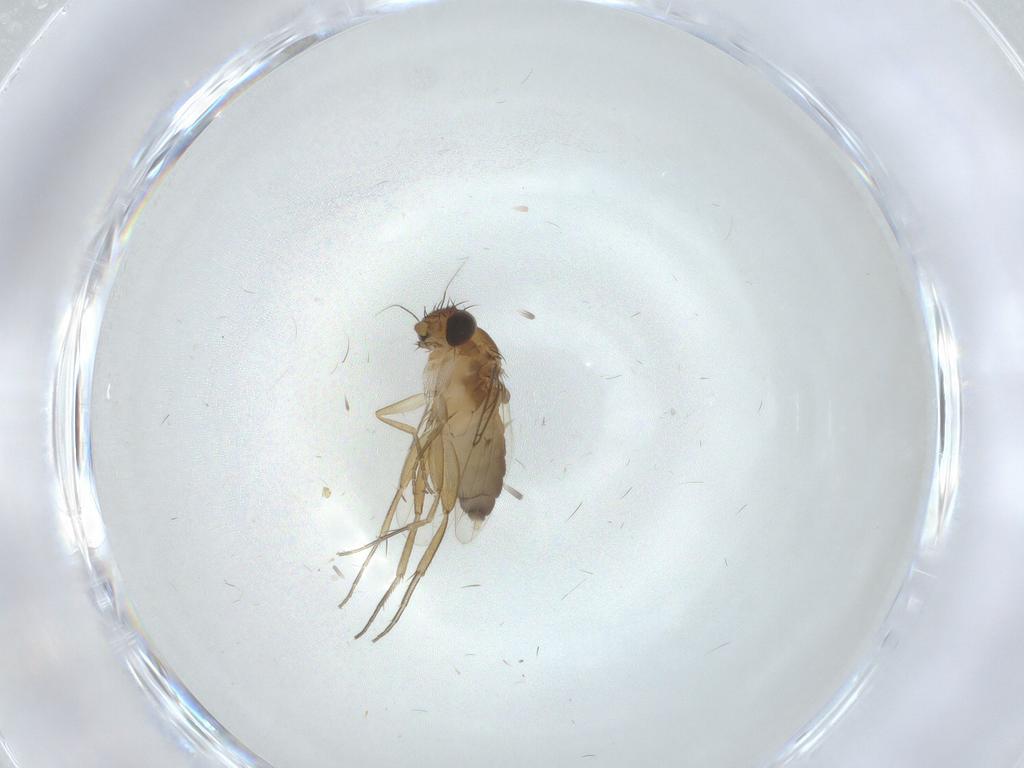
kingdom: Animalia
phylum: Arthropoda
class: Insecta
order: Diptera
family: Phoridae
